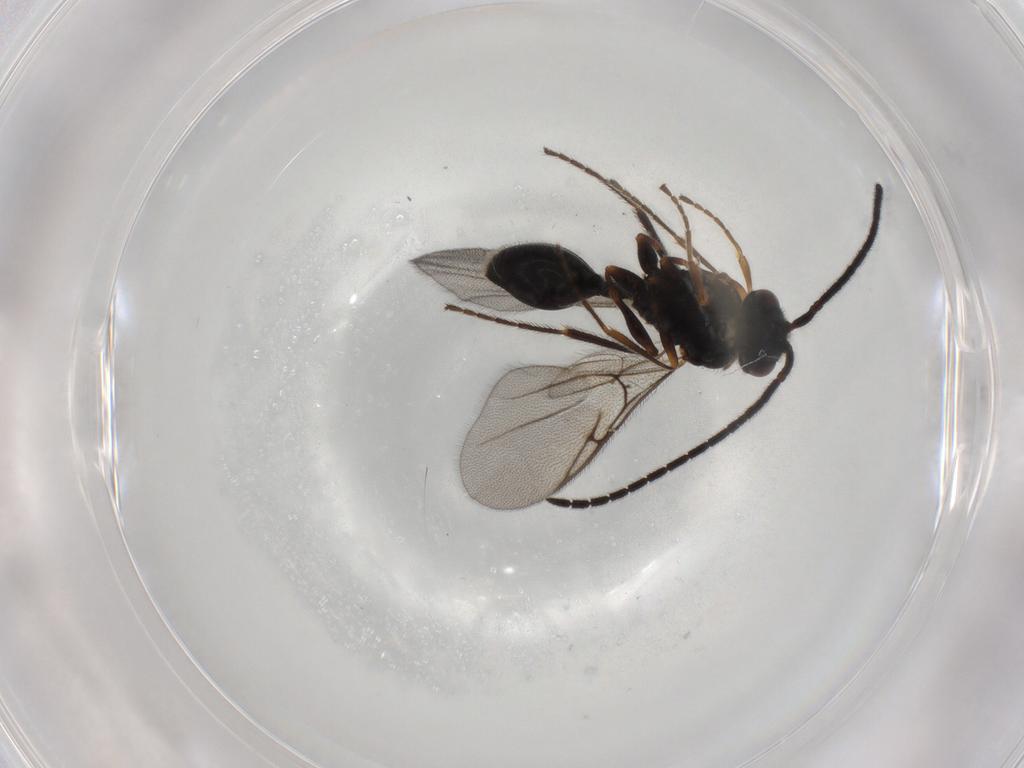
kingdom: Animalia
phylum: Arthropoda
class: Insecta
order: Hymenoptera
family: Diapriidae
